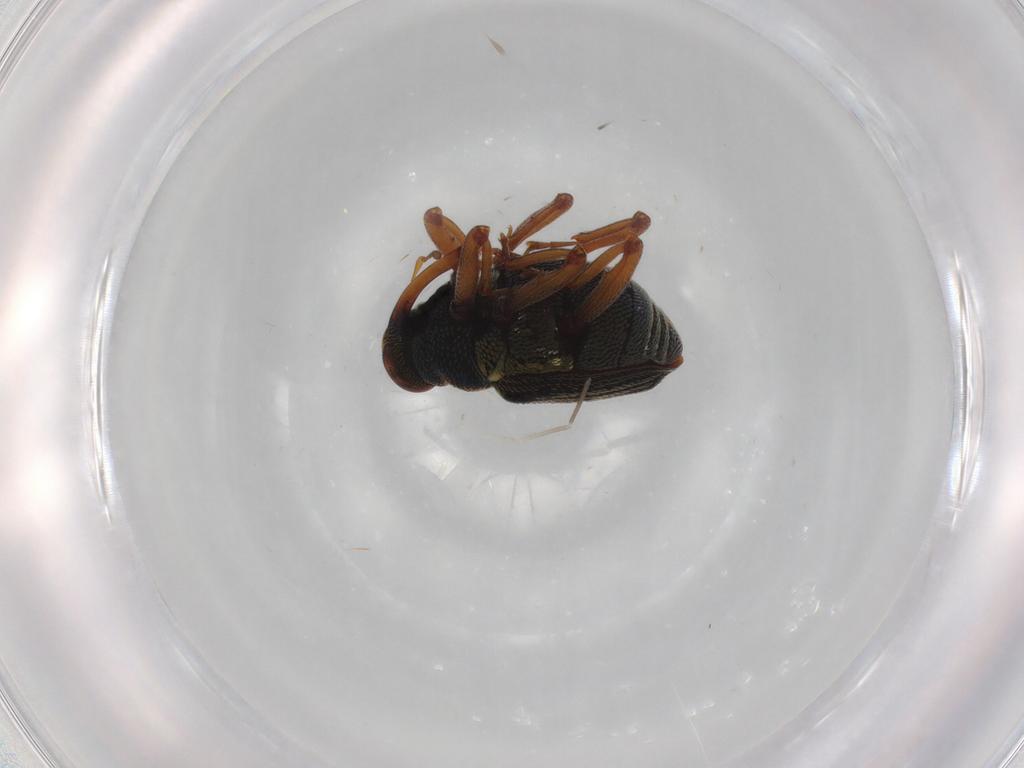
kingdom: Animalia
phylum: Arthropoda
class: Insecta
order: Coleoptera
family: Curculionidae
